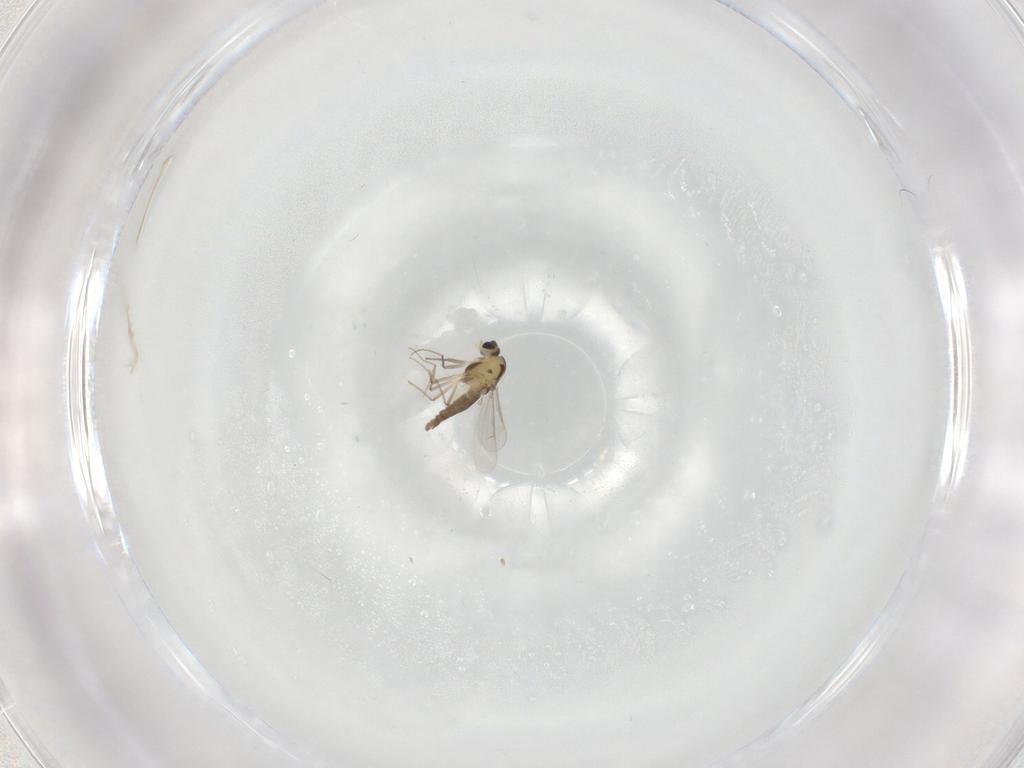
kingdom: Animalia
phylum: Arthropoda
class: Insecta
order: Diptera
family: Chironomidae
